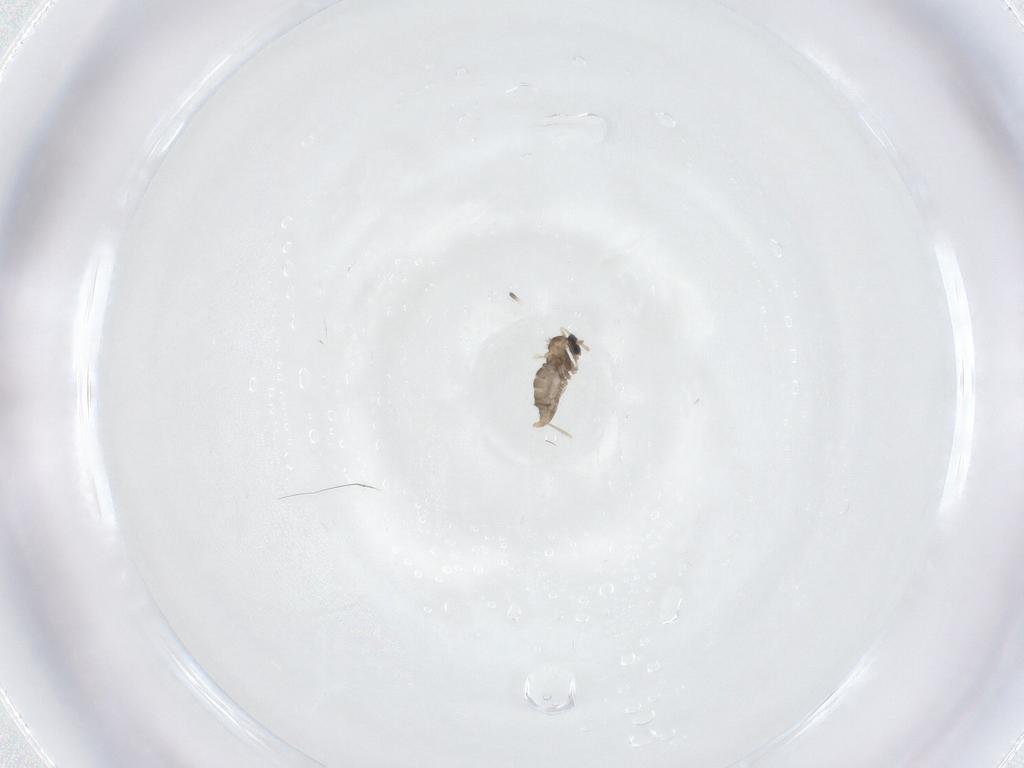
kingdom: Animalia
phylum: Arthropoda
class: Insecta
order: Diptera
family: Cecidomyiidae
